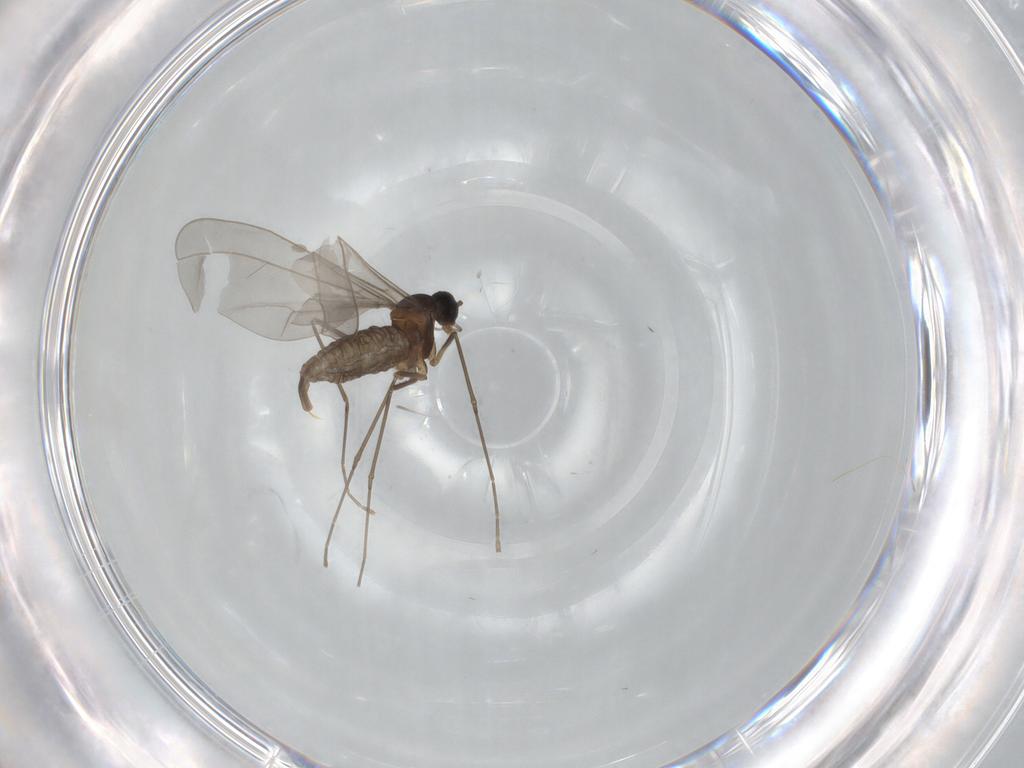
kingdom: Animalia
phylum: Arthropoda
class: Insecta
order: Diptera
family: Cecidomyiidae
